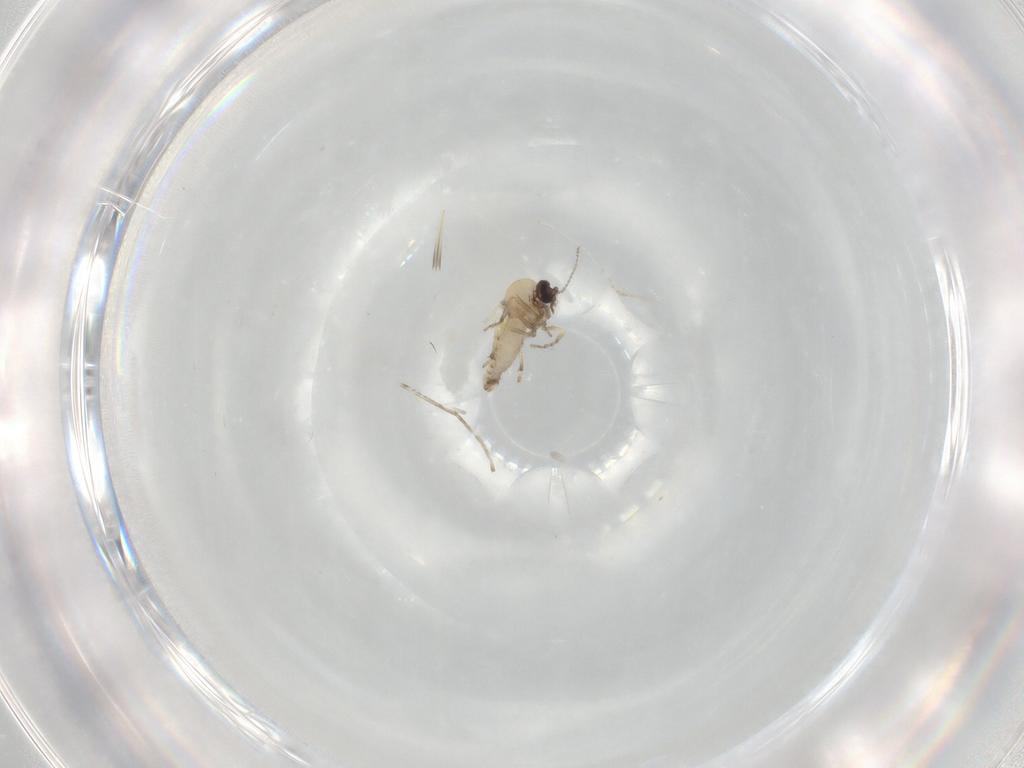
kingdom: Animalia
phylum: Arthropoda
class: Insecta
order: Diptera
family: Ceratopogonidae
